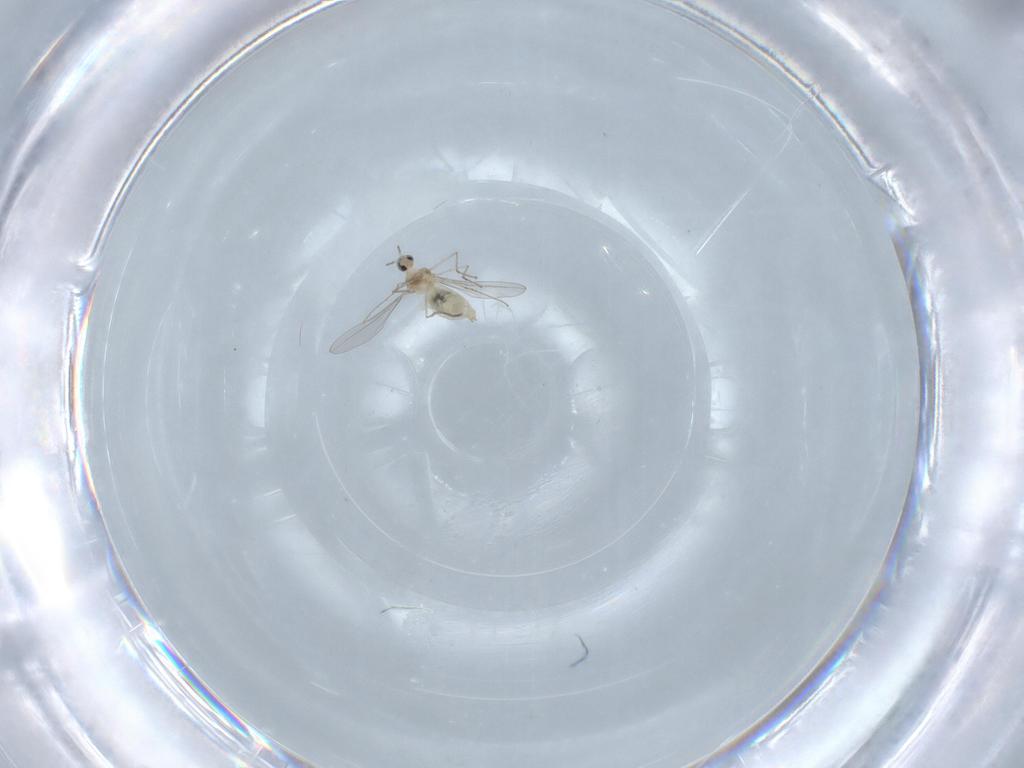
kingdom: Animalia
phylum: Arthropoda
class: Insecta
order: Diptera
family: Cecidomyiidae
